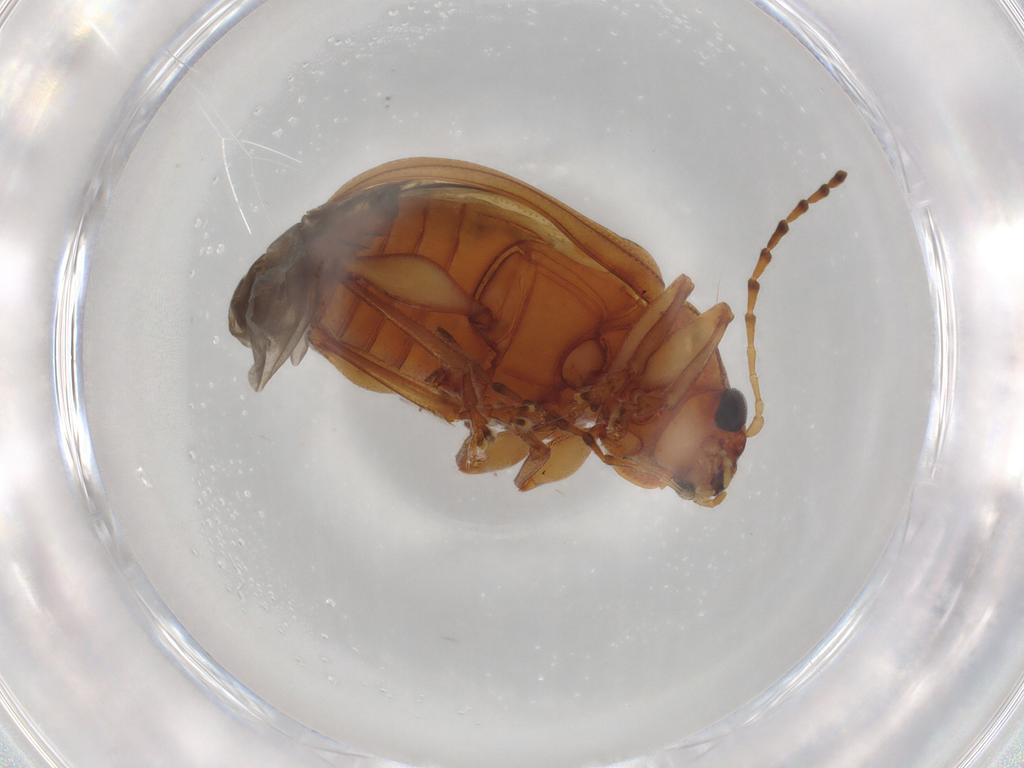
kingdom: Animalia
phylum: Arthropoda
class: Insecta
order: Coleoptera
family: Chrysomelidae
